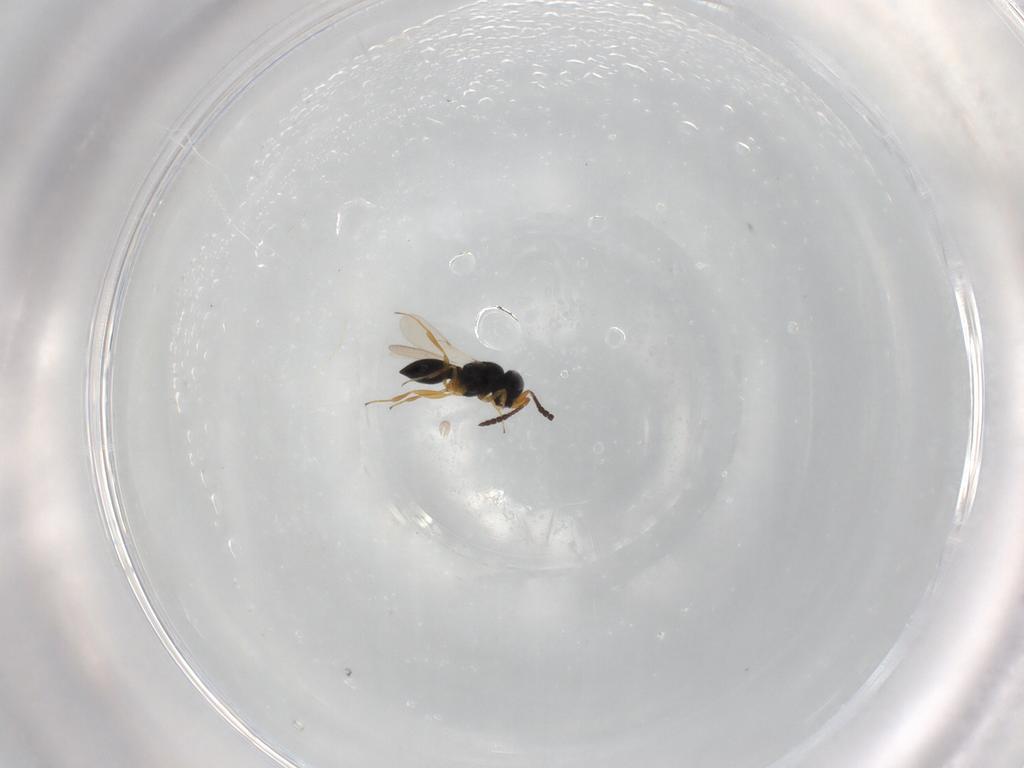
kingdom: Animalia
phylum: Arthropoda
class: Insecta
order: Hymenoptera
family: Scelionidae
